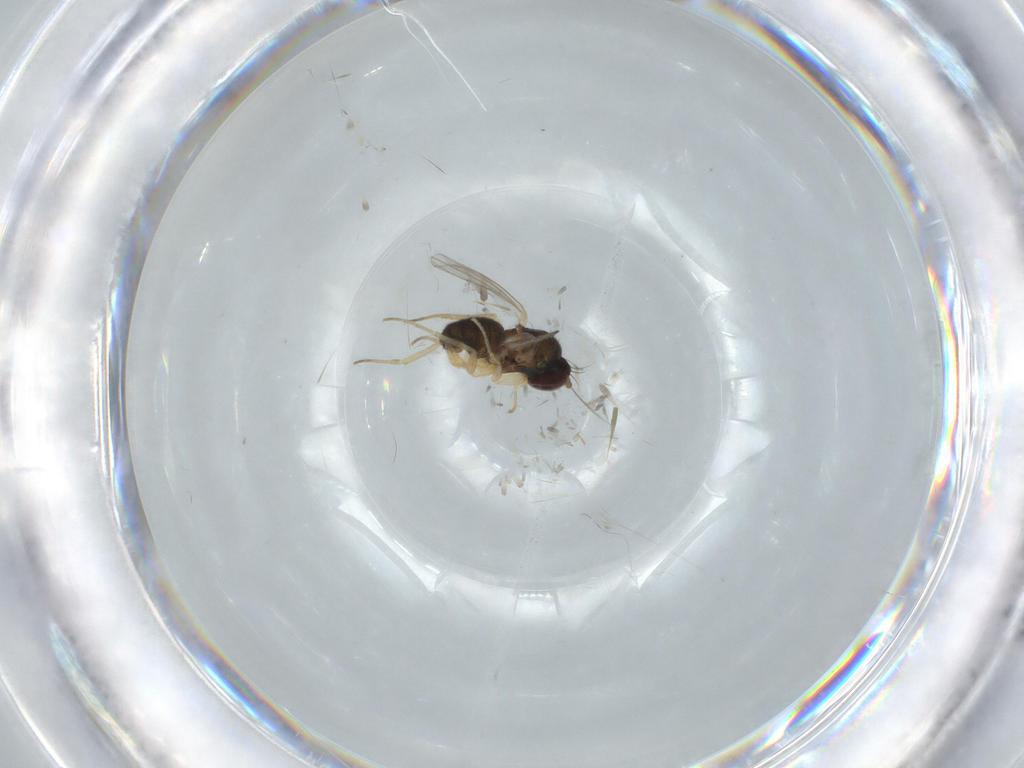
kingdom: Animalia
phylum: Arthropoda
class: Insecta
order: Diptera
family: Dolichopodidae
